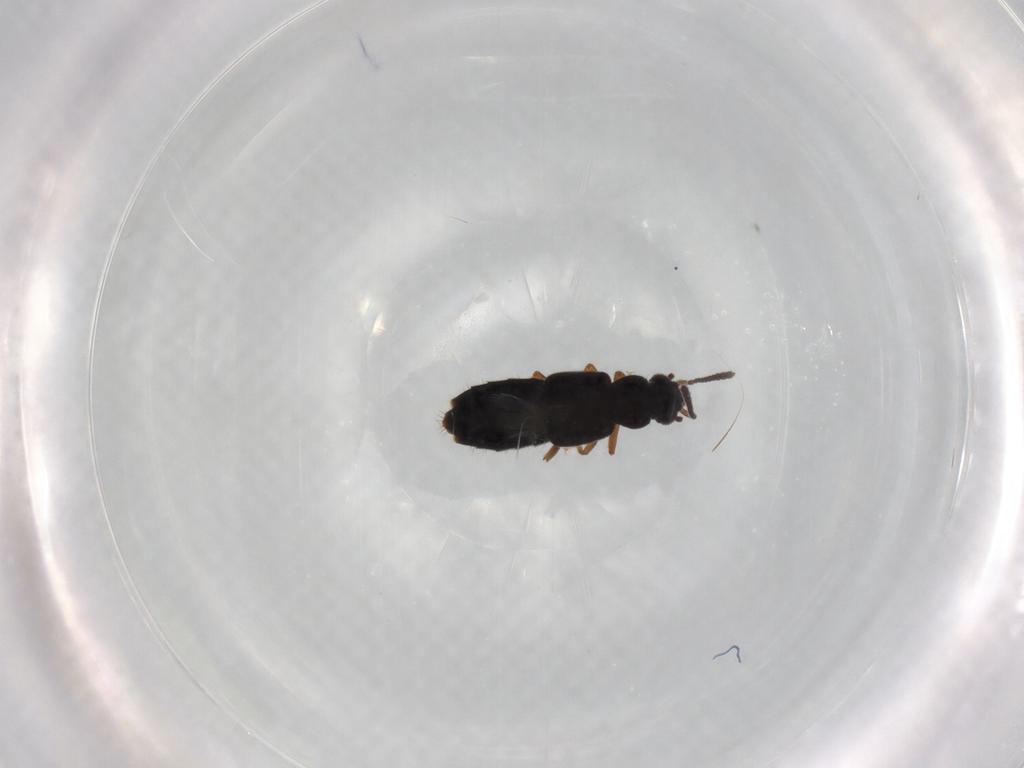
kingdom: Animalia
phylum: Arthropoda
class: Insecta
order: Coleoptera
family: Staphylinidae
